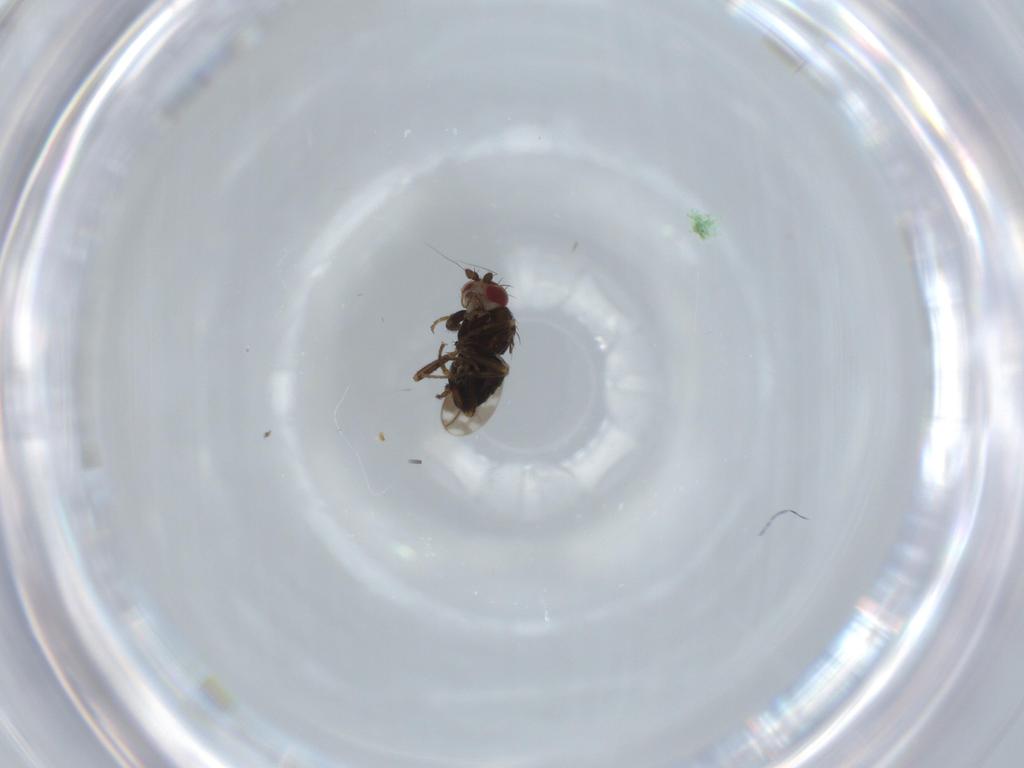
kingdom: Animalia
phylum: Arthropoda
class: Insecta
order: Diptera
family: Sphaeroceridae
